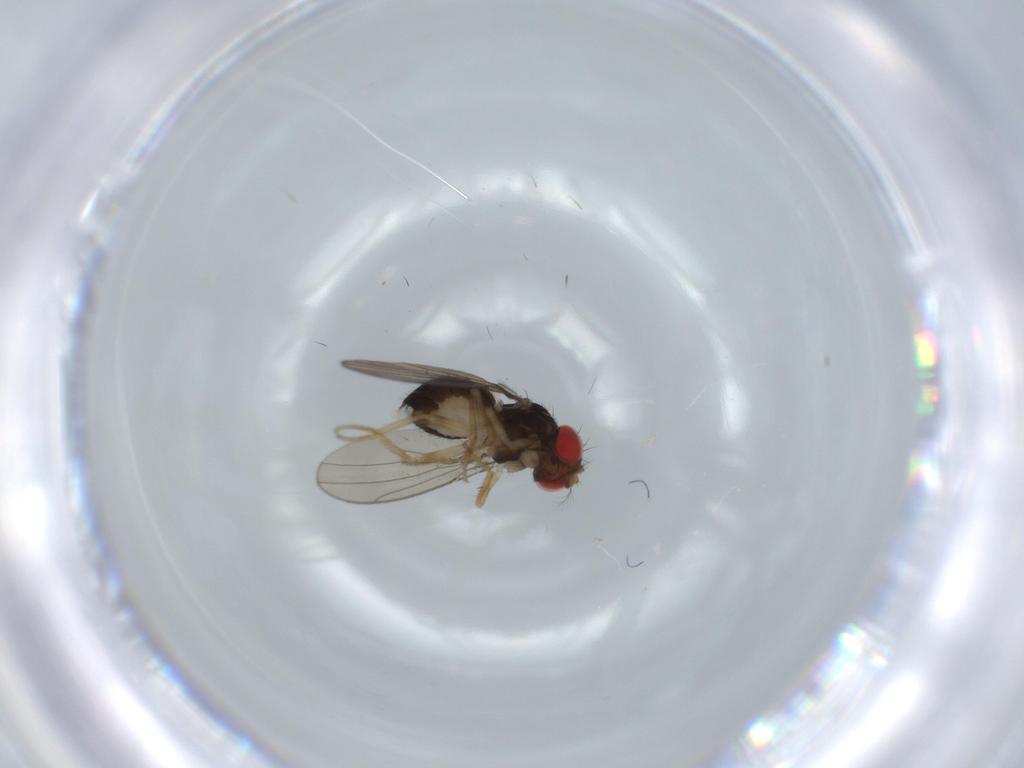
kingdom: Animalia
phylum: Arthropoda
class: Insecta
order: Diptera
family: Drosophilidae
